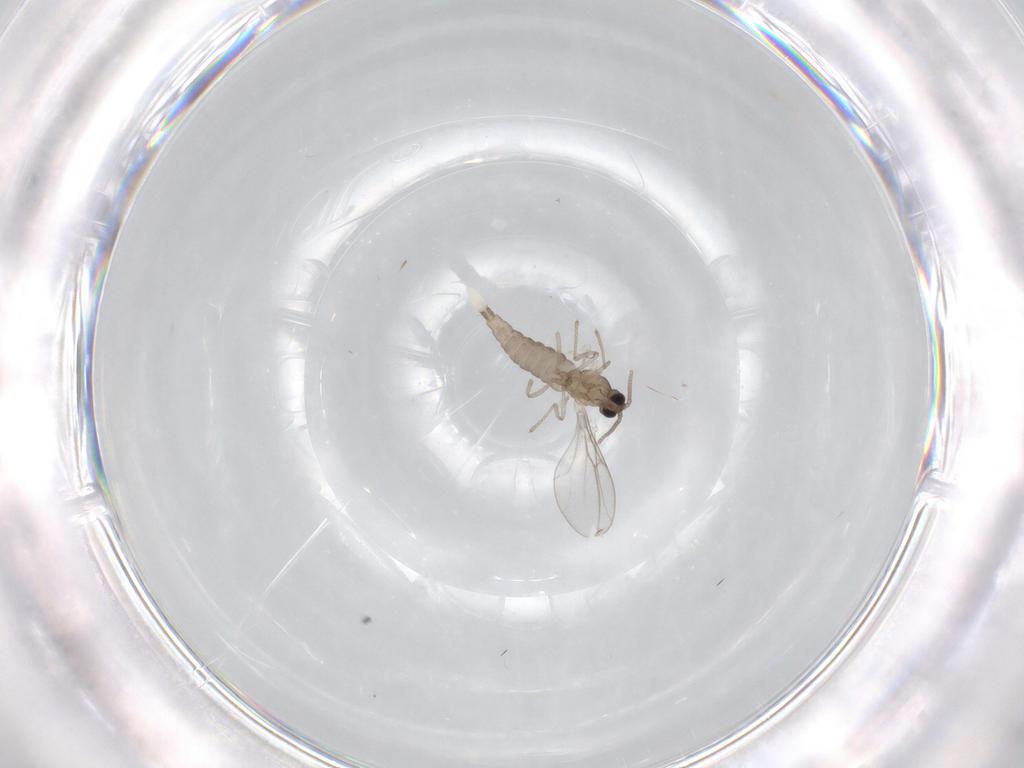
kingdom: Animalia
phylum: Arthropoda
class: Insecta
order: Diptera
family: Cecidomyiidae
